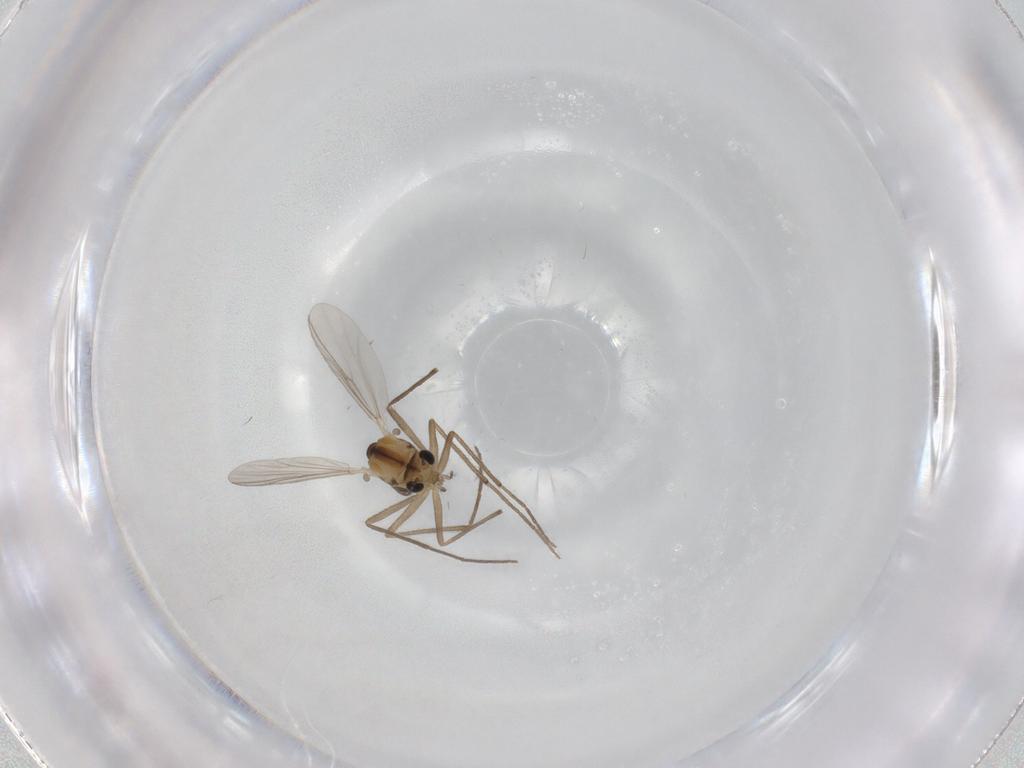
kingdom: Animalia
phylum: Arthropoda
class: Insecta
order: Diptera
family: Chironomidae
